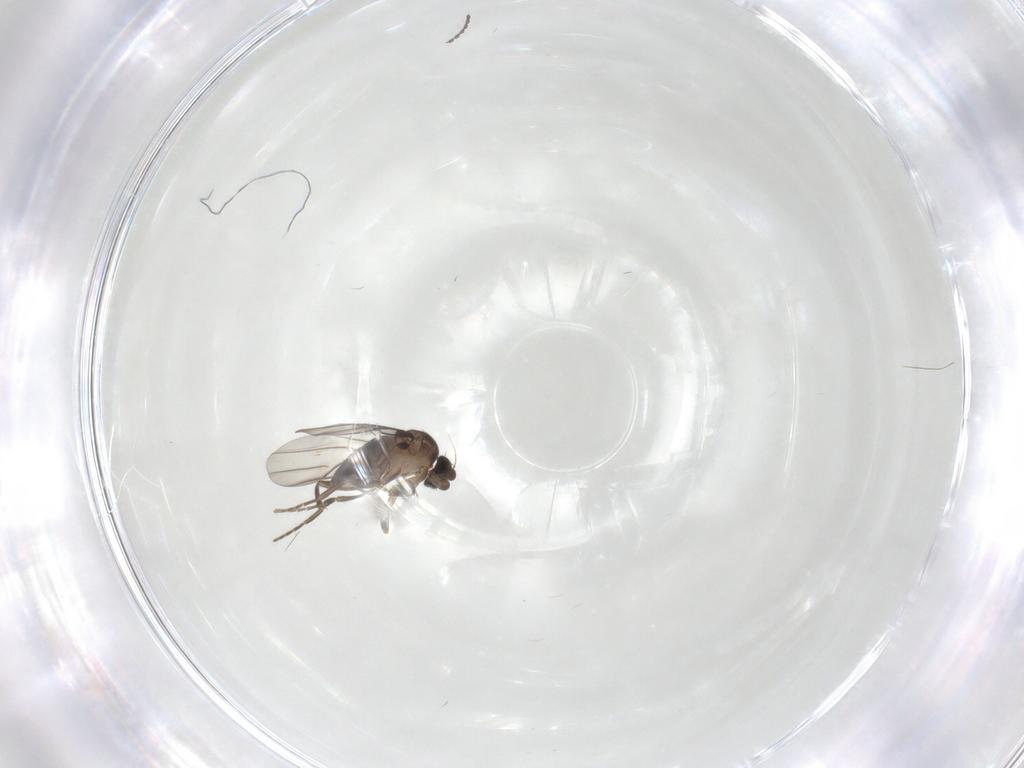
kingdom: Animalia
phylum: Arthropoda
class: Insecta
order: Diptera
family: Cecidomyiidae
